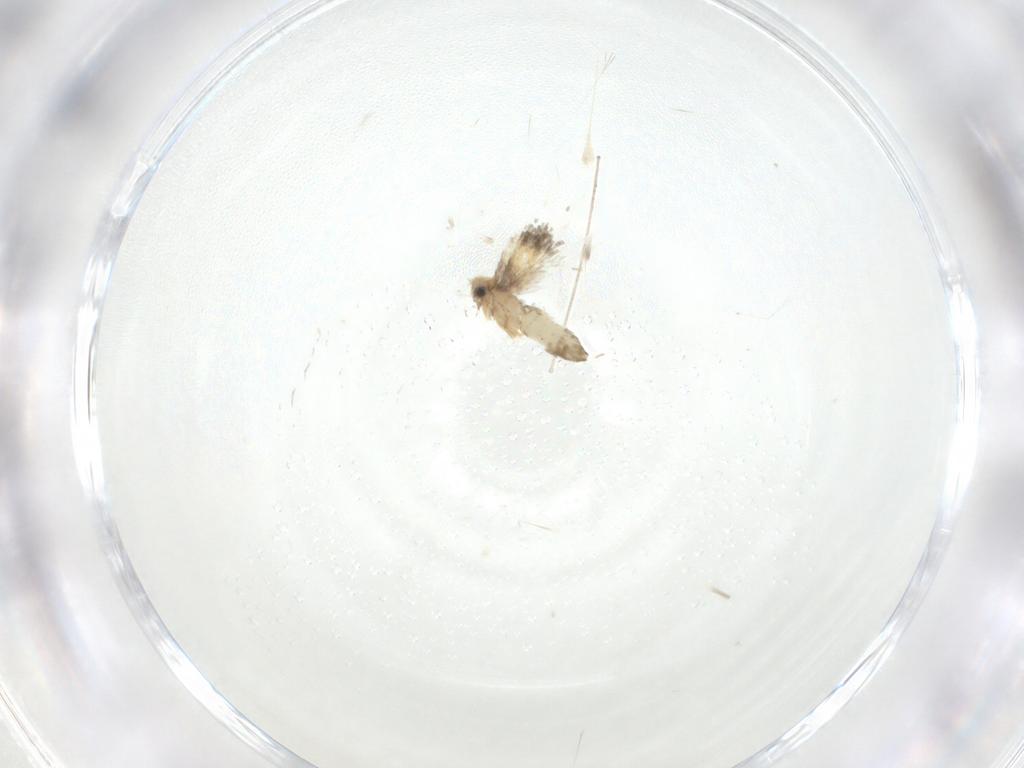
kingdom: Animalia
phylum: Arthropoda
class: Insecta
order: Lepidoptera
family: Nepticulidae
